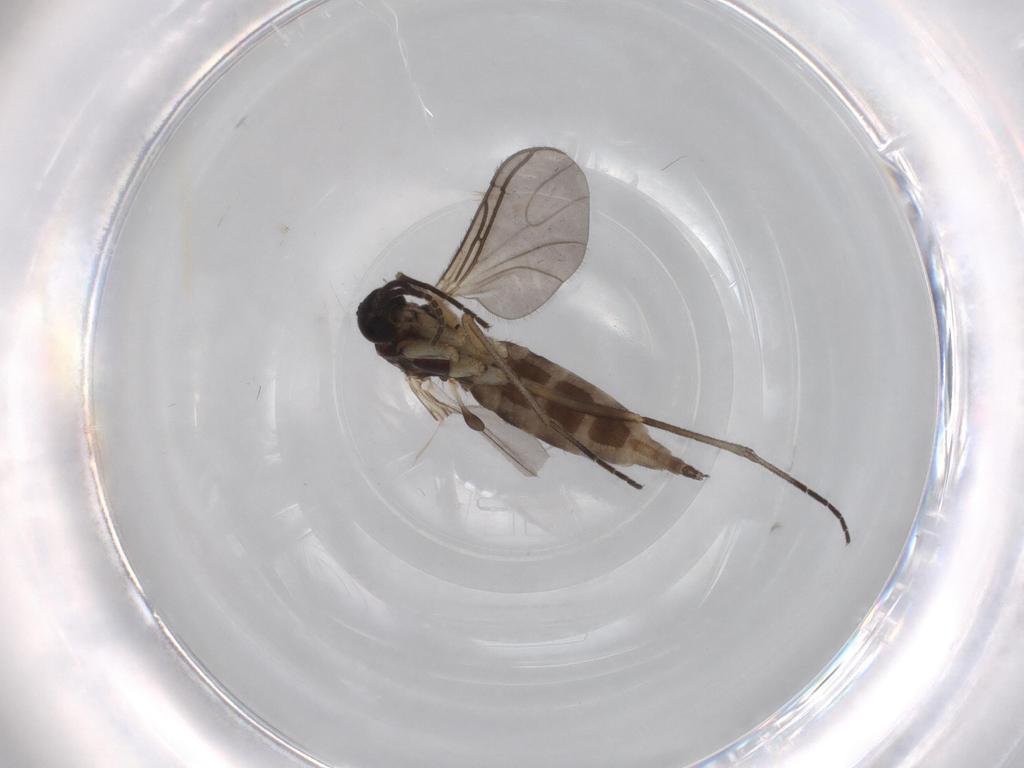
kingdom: Animalia
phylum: Arthropoda
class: Insecta
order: Diptera
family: Sciaridae
